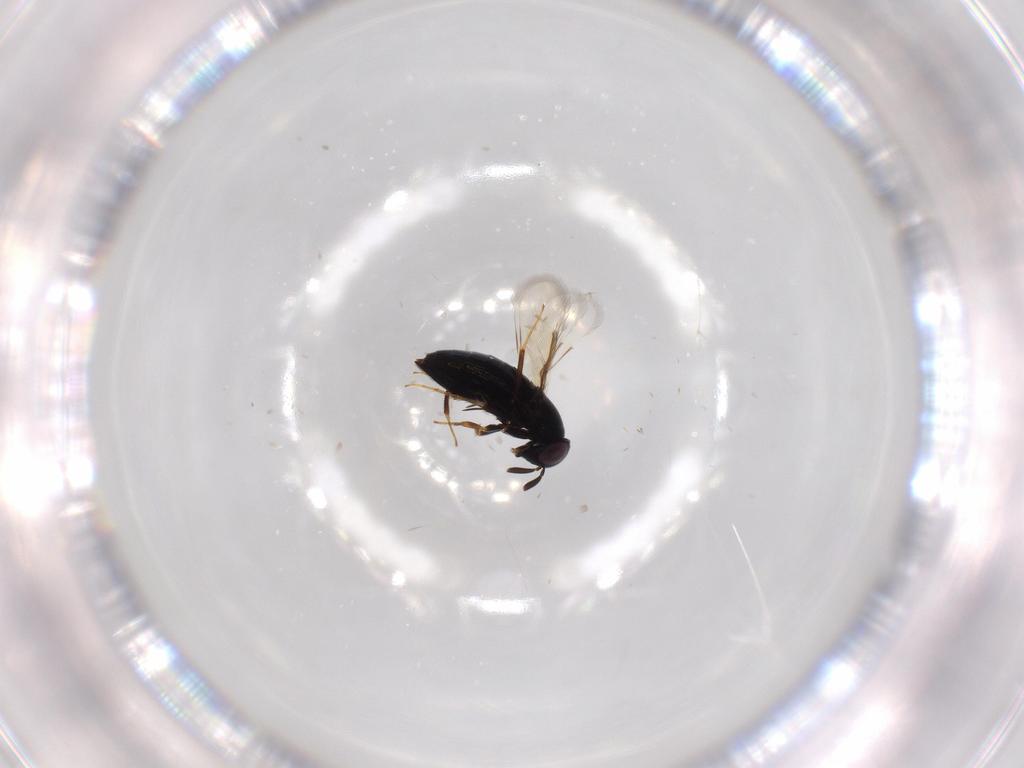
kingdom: Animalia
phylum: Arthropoda
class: Insecta
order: Hymenoptera
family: Signiphoridae
